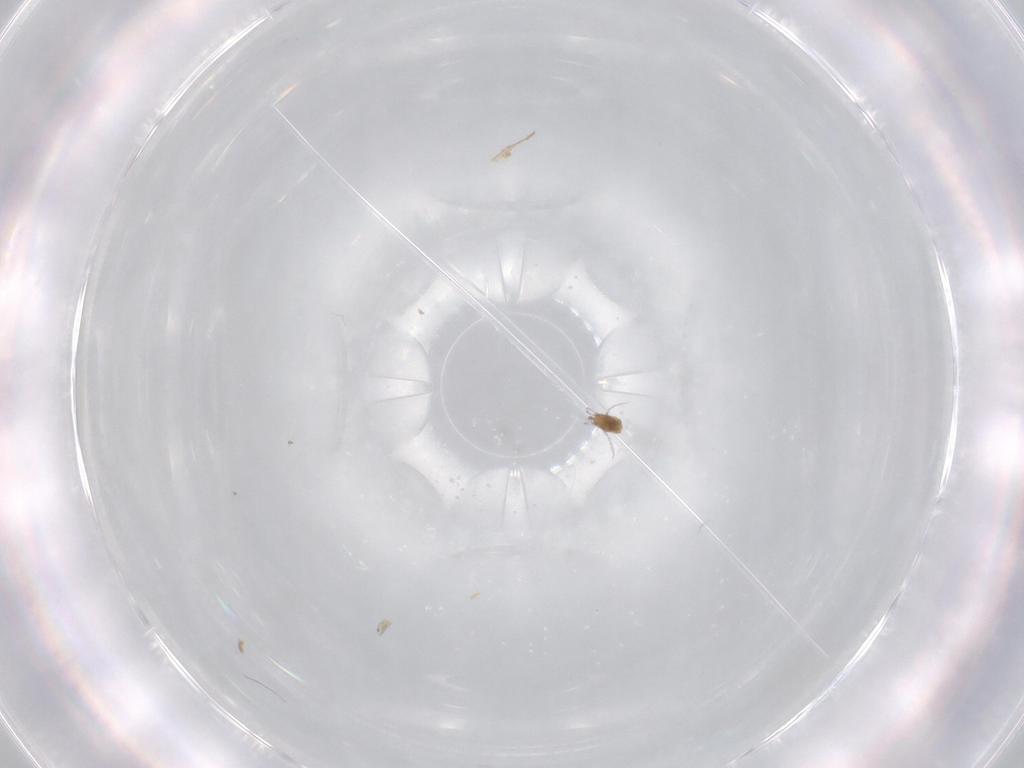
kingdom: Animalia
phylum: Arthropoda
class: Arachnida
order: Trombidiformes
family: Limnesiidae
